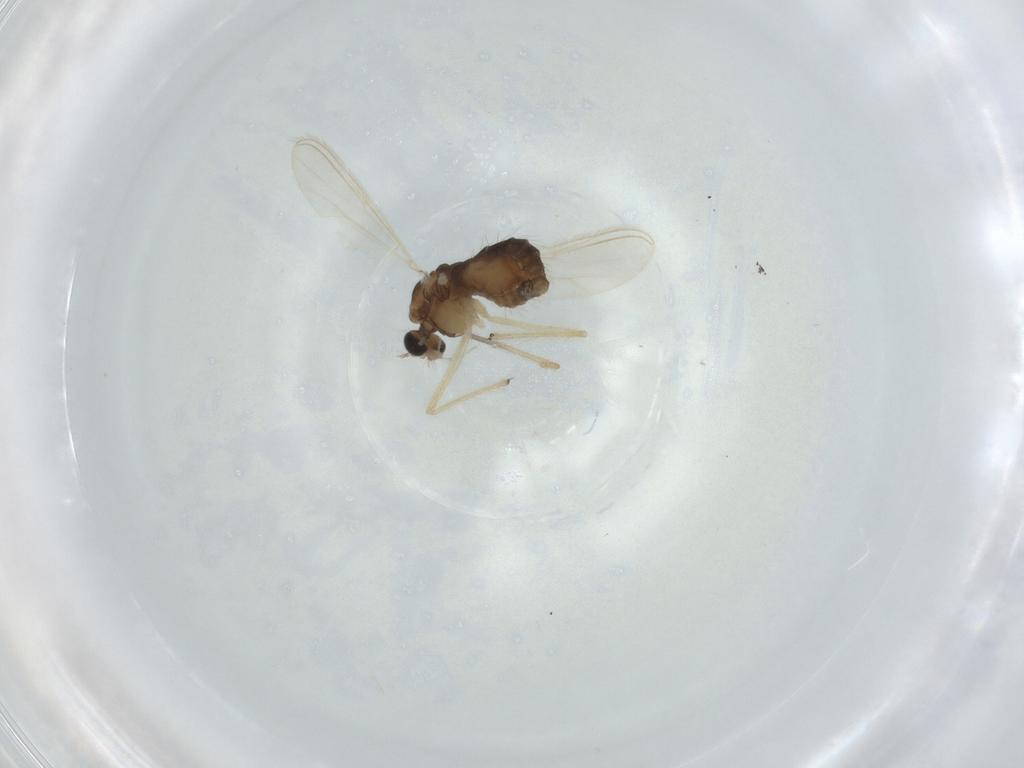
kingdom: Animalia
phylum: Arthropoda
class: Insecta
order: Diptera
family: Chironomidae
